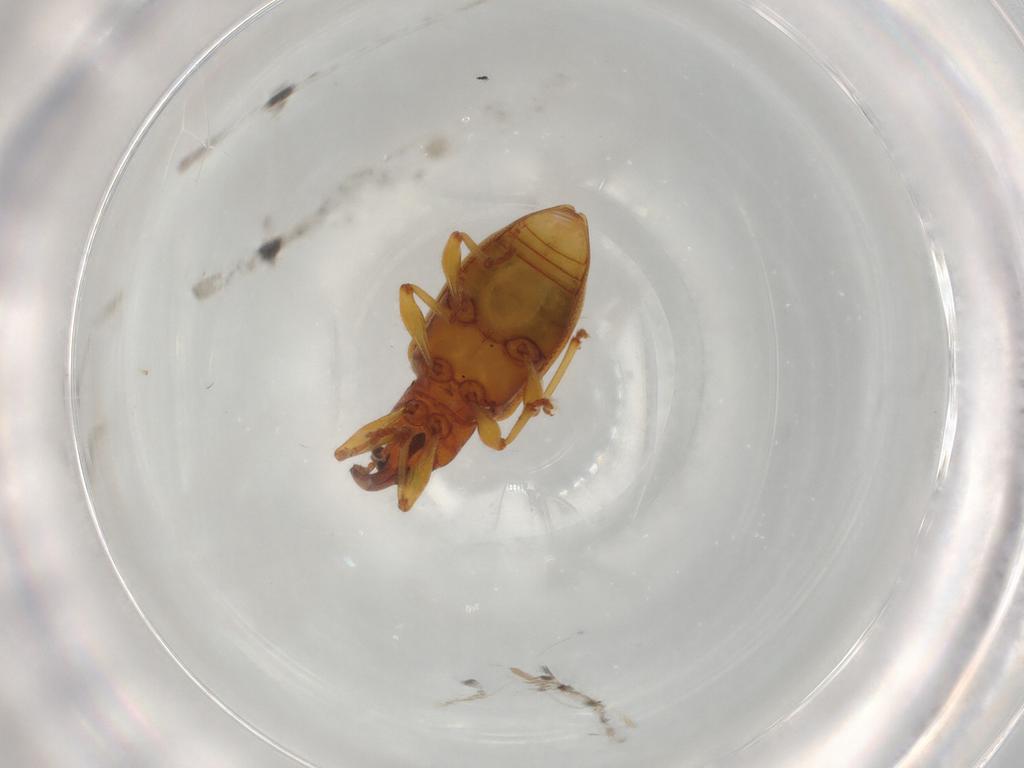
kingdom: Animalia
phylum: Arthropoda
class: Insecta
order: Coleoptera
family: Curculionidae
